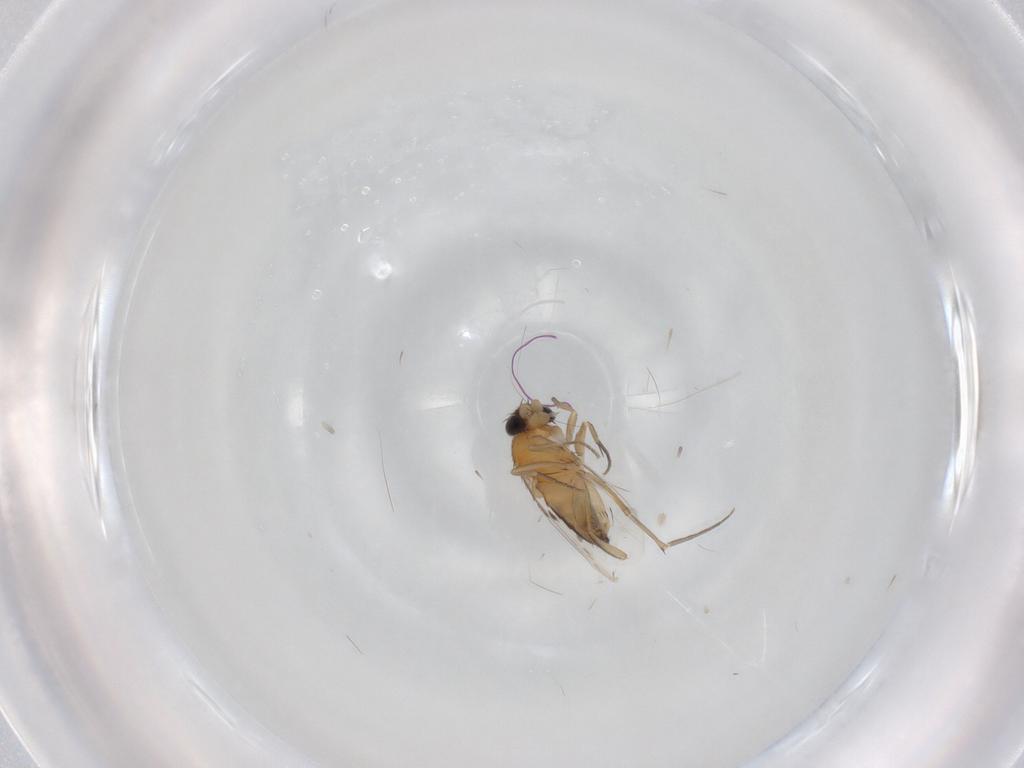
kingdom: Animalia
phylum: Arthropoda
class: Insecta
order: Diptera
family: Phoridae
